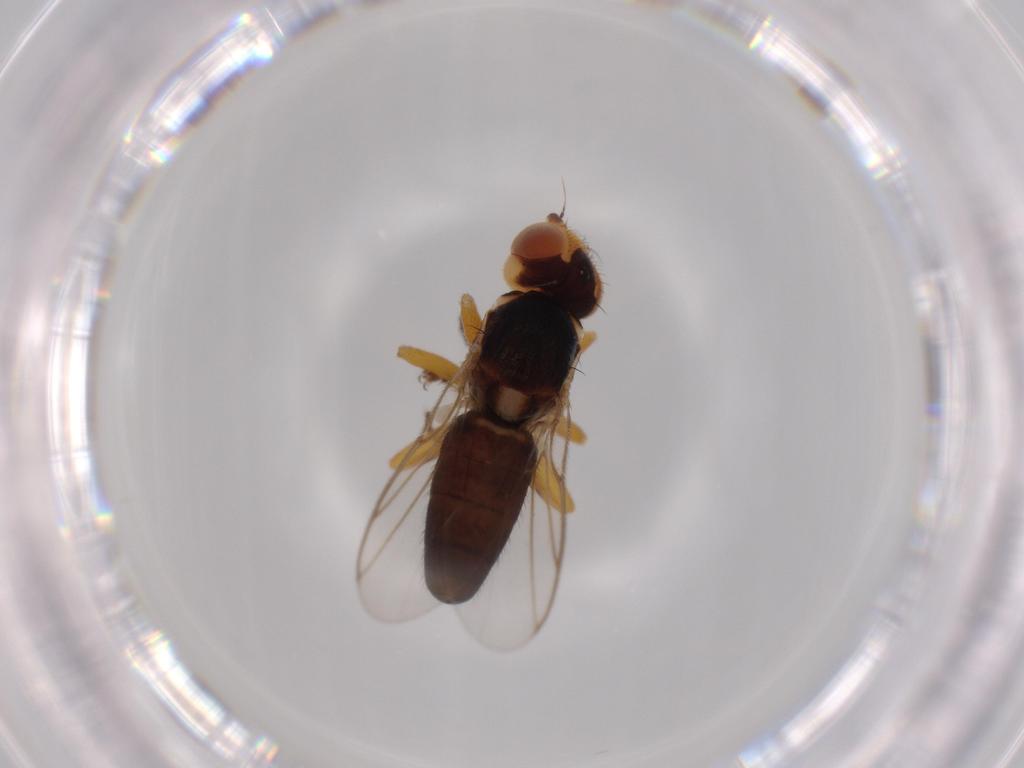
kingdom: Animalia
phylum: Arthropoda
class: Insecta
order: Diptera
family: Chloropidae
